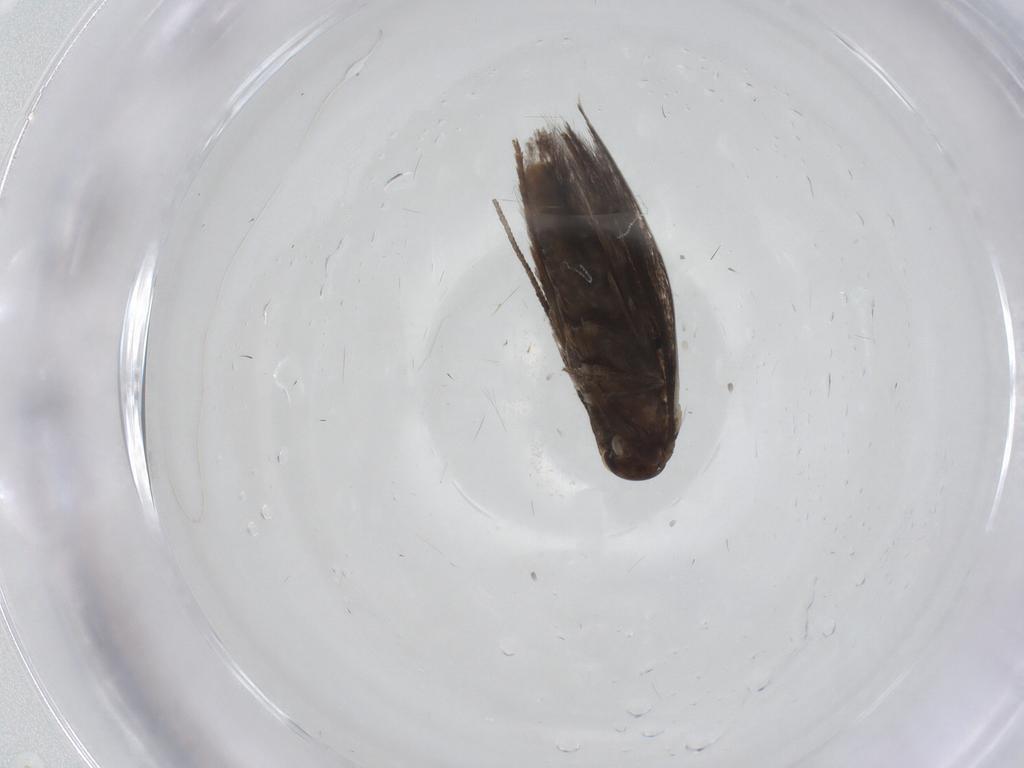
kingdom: Animalia
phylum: Arthropoda
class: Insecta
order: Lepidoptera
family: Elachistidae
